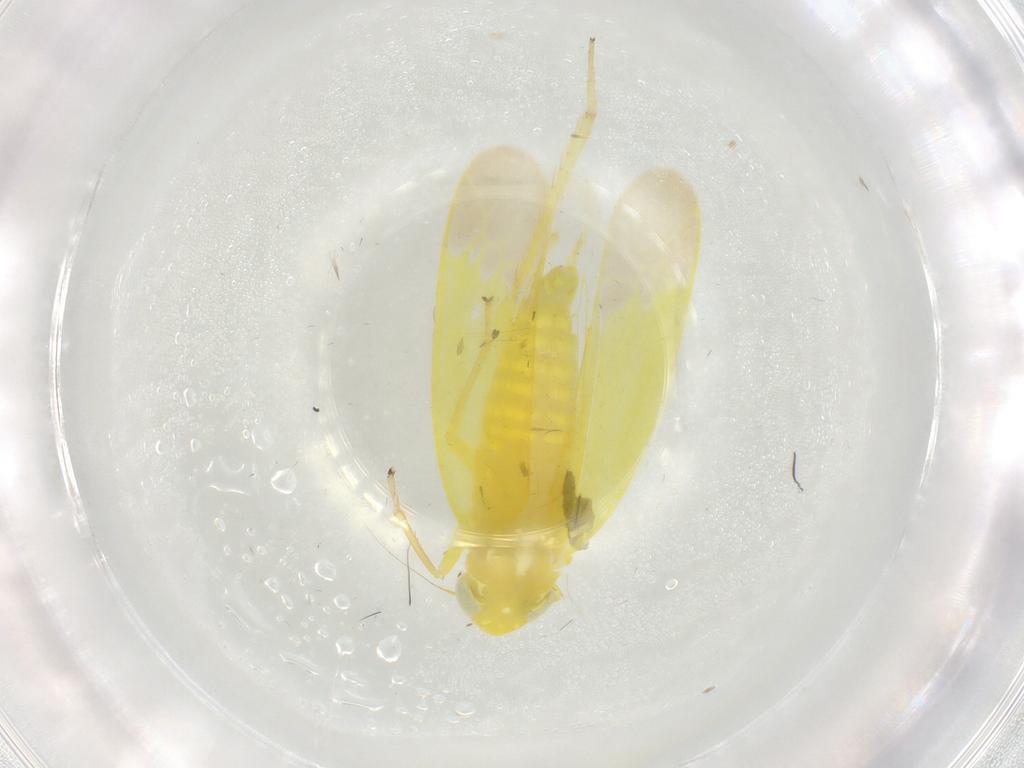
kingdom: Animalia
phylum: Arthropoda
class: Insecta
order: Hemiptera
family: Cicadellidae
